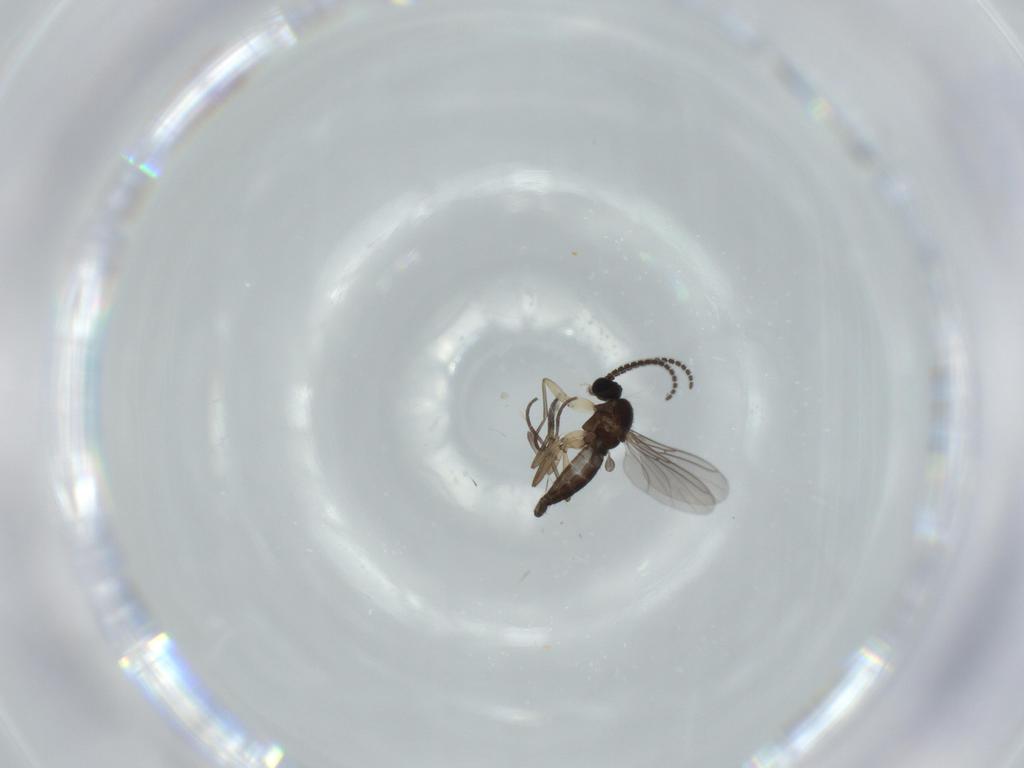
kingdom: Animalia
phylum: Arthropoda
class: Insecta
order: Diptera
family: Sciaridae
